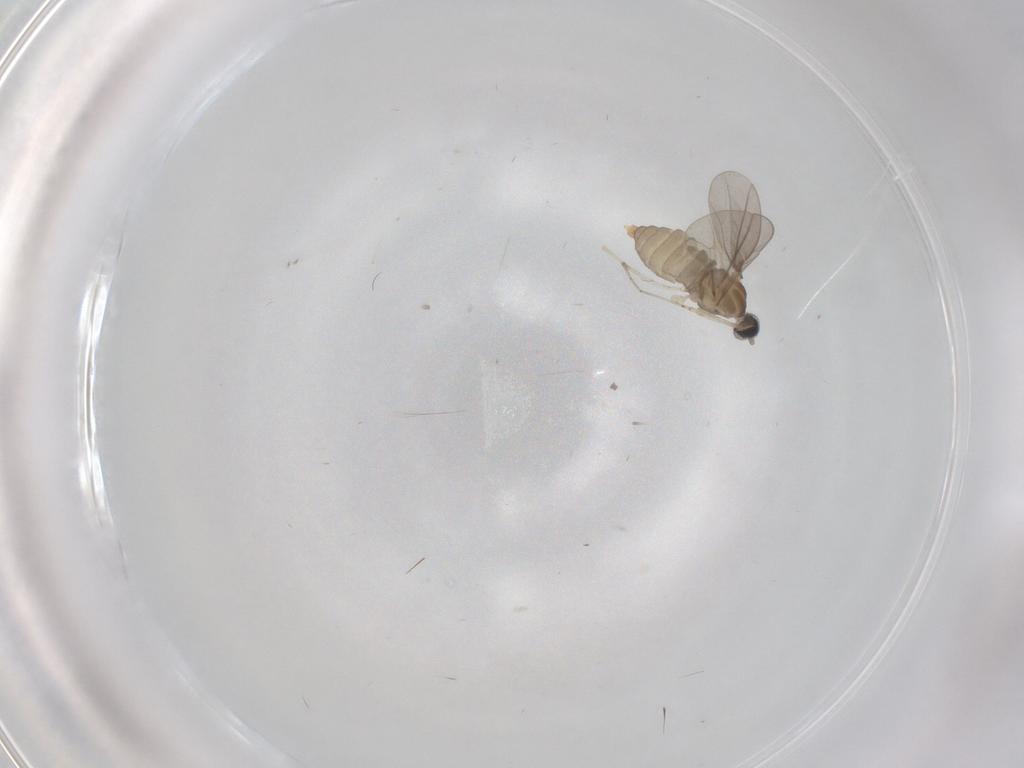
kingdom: Animalia
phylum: Arthropoda
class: Insecta
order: Diptera
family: Cecidomyiidae
